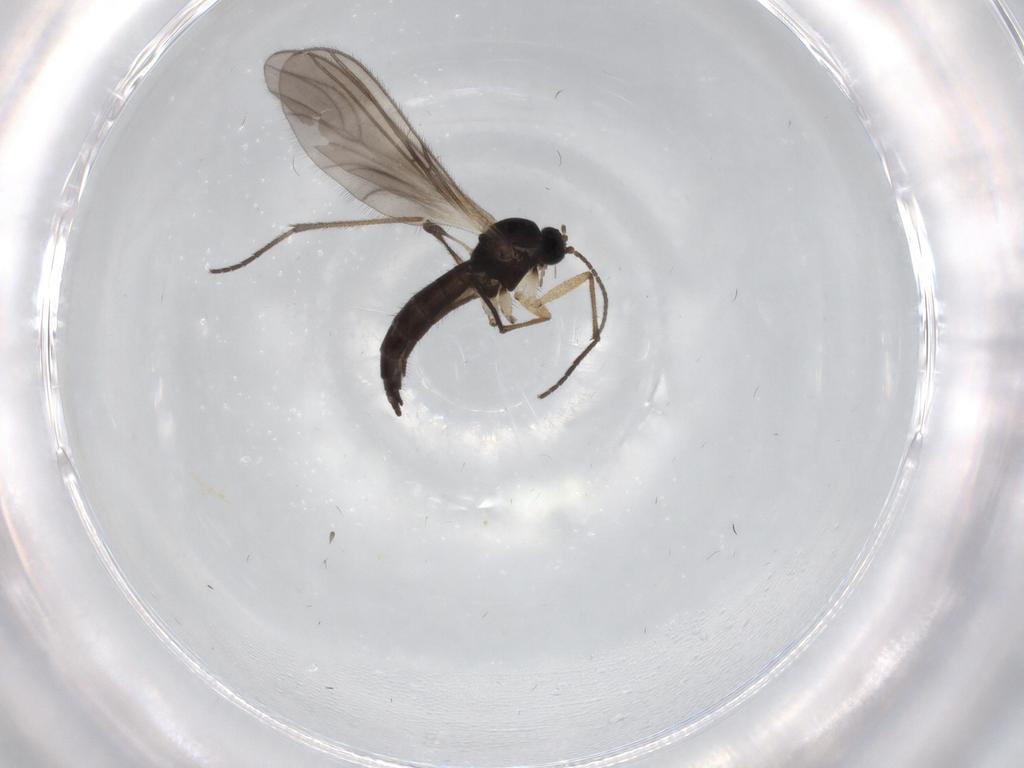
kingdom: Animalia
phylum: Arthropoda
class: Insecta
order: Diptera
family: Sciaridae
